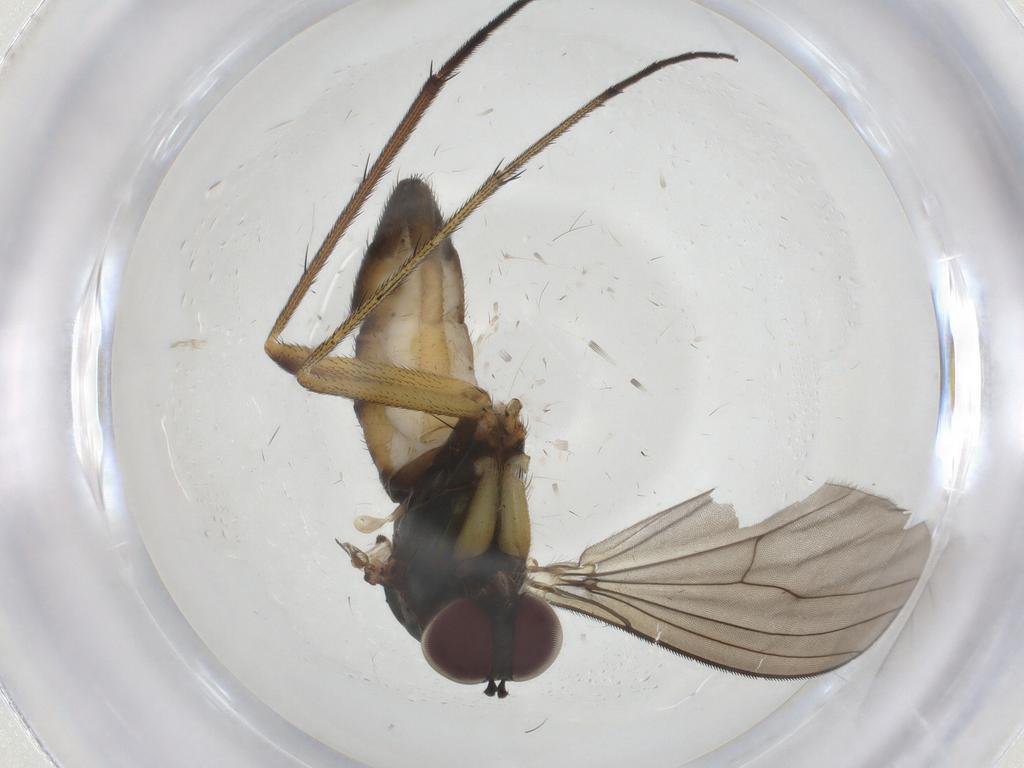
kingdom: Animalia
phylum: Arthropoda
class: Insecta
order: Diptera
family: Dolichopodidae
